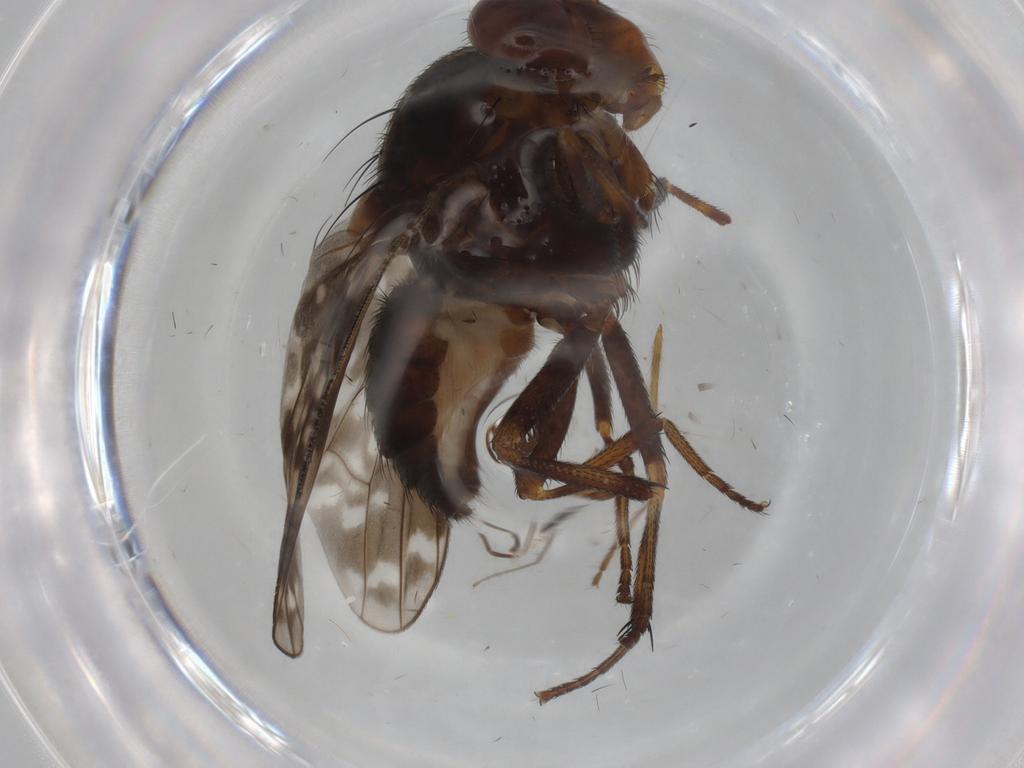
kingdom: Animalia
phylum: Arthropoda
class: Insecta
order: Diptera
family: Lauxaniidae
